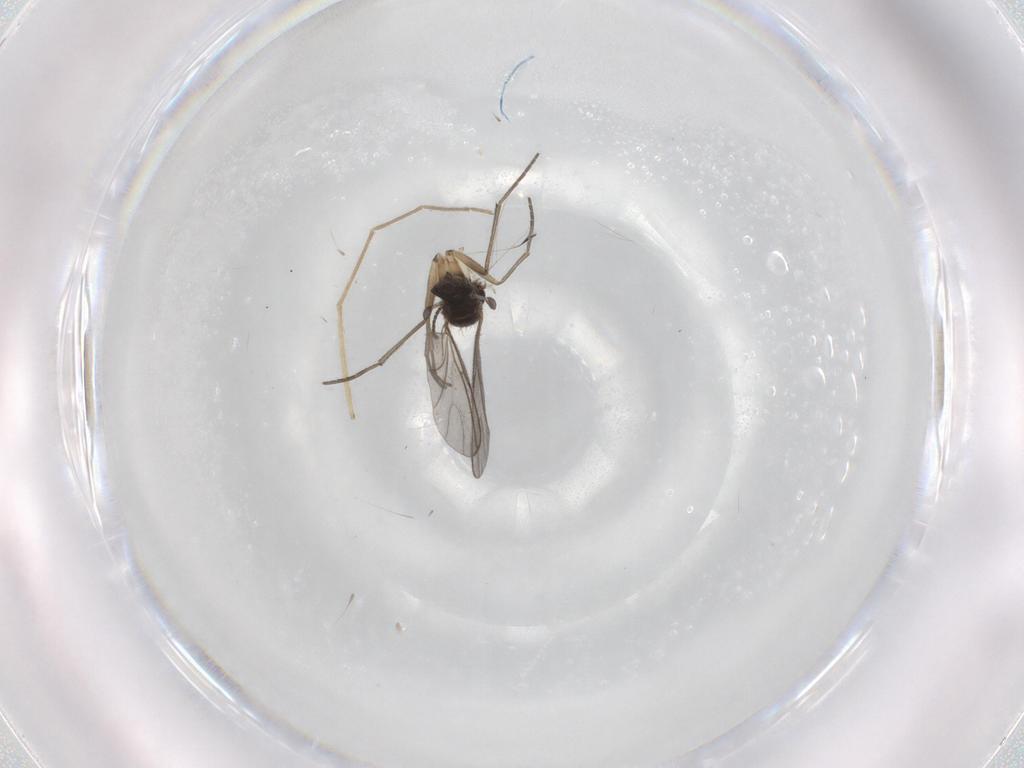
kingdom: Animalia
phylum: Arthropoda
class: Insecta
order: Diptera
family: Sciaridae
